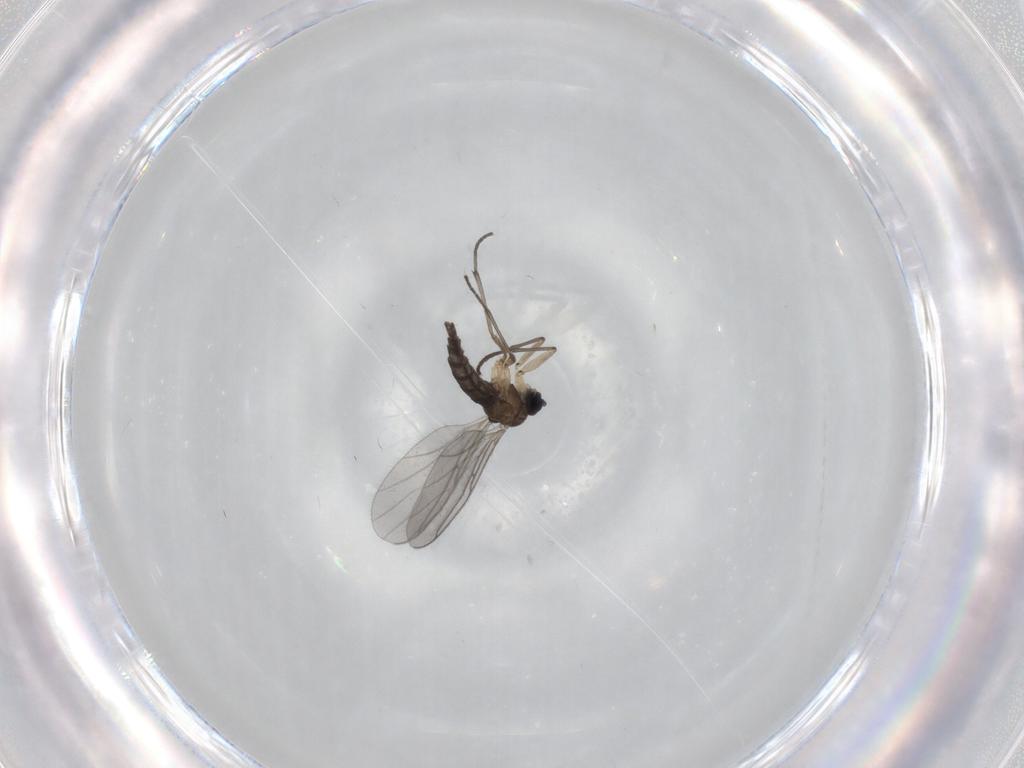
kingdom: Animalia
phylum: Arthropoda
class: Insecta
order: Diptera
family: Sciaridae
